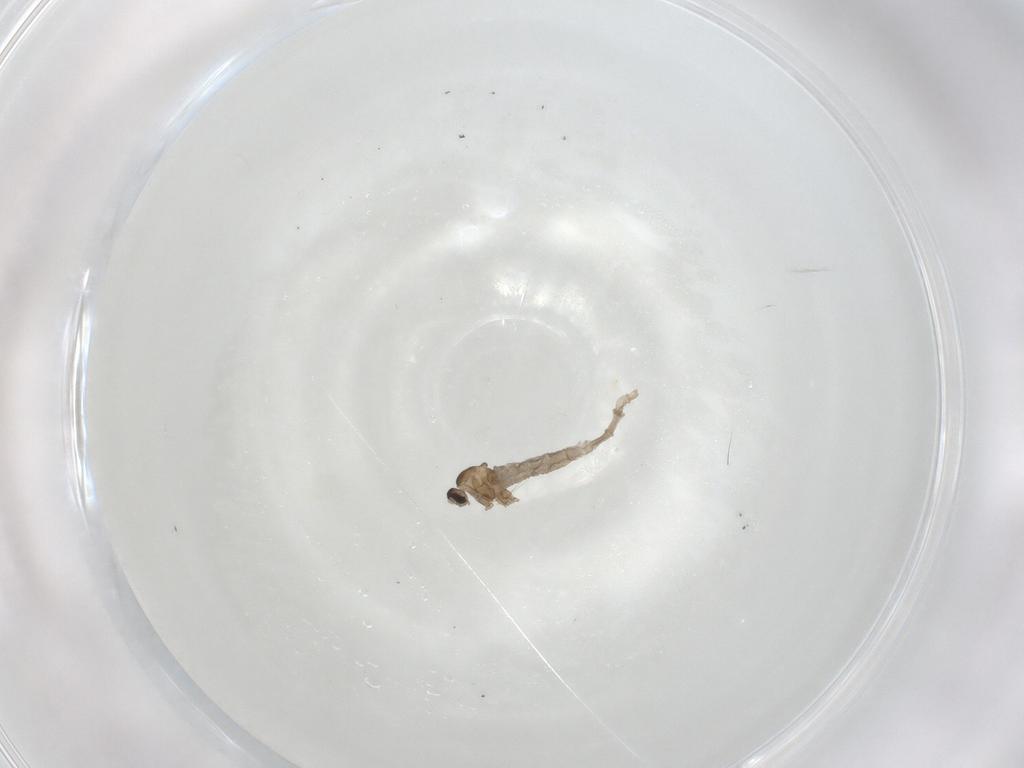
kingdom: Animalia
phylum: Arthropoda
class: Insecta
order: Diptera
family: Cecidomyiidae
